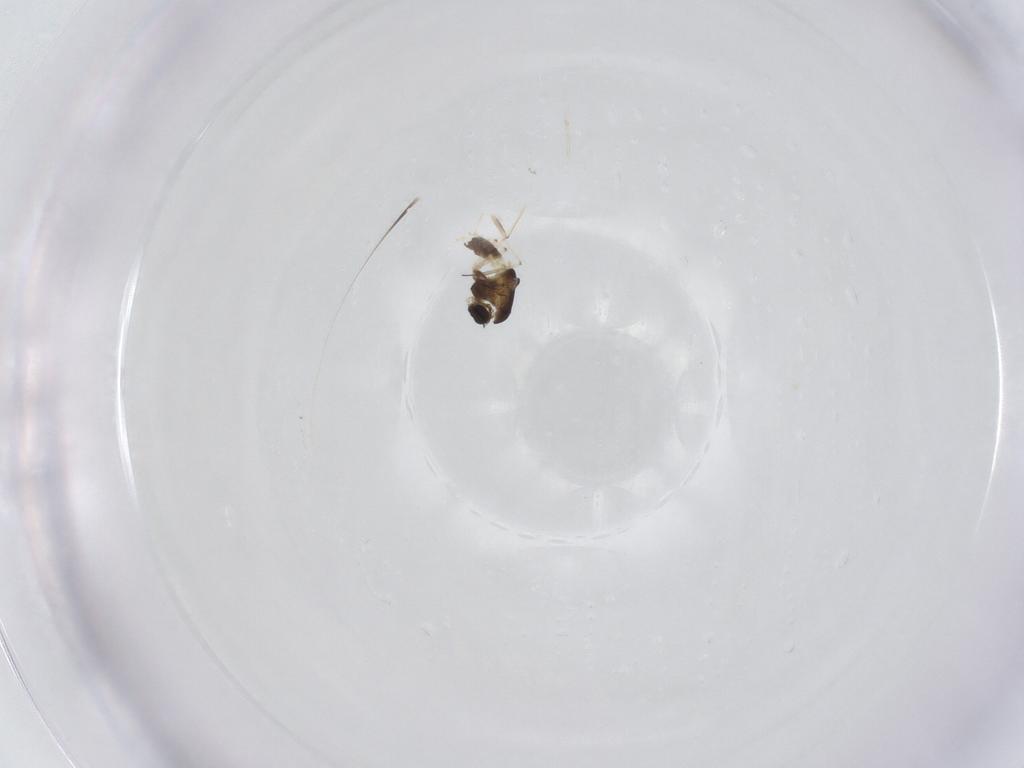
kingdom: Animalia
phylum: Arthropoda
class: Insecta
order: Diptera
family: Chironomidae
